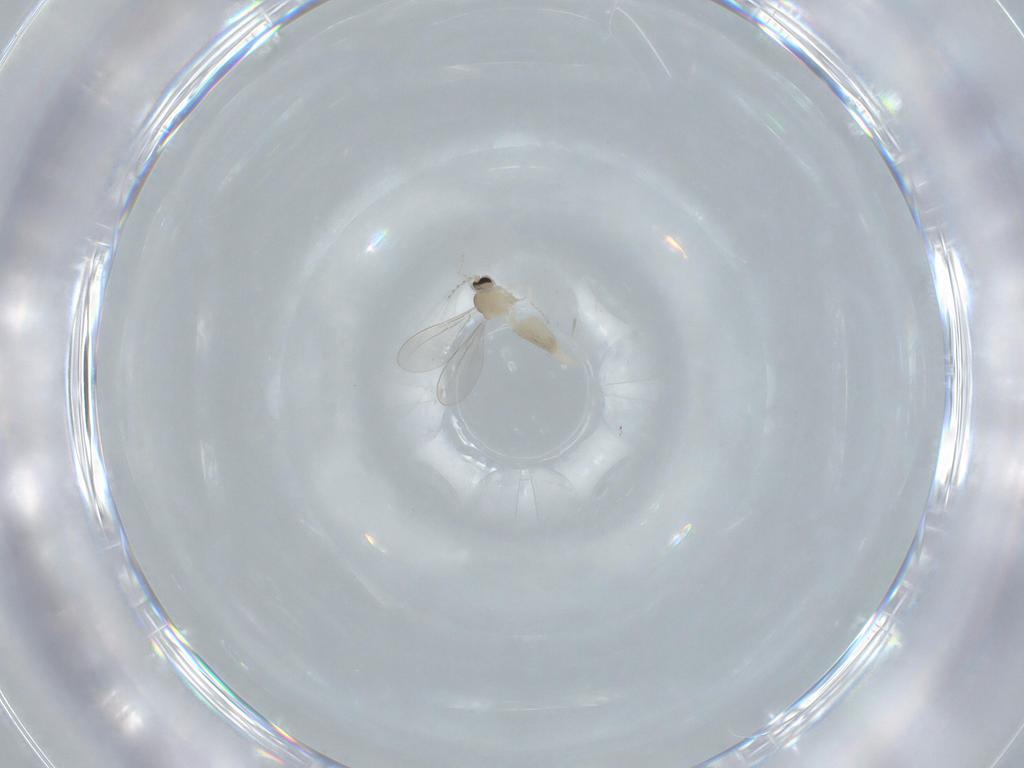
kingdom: Animalia
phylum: Arthropoda
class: Insecta
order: Diptera
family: Cecidomyiidae
